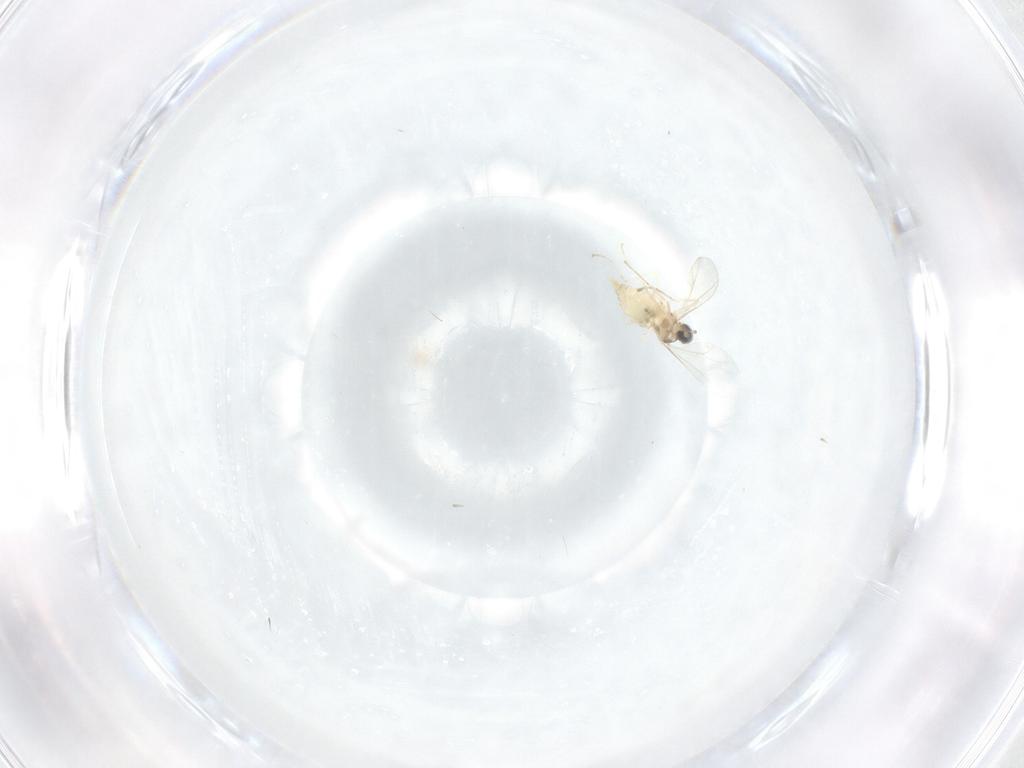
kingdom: Animalia
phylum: Arthropoda
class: Insecta
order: Diptera
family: Cecidomyiidae
